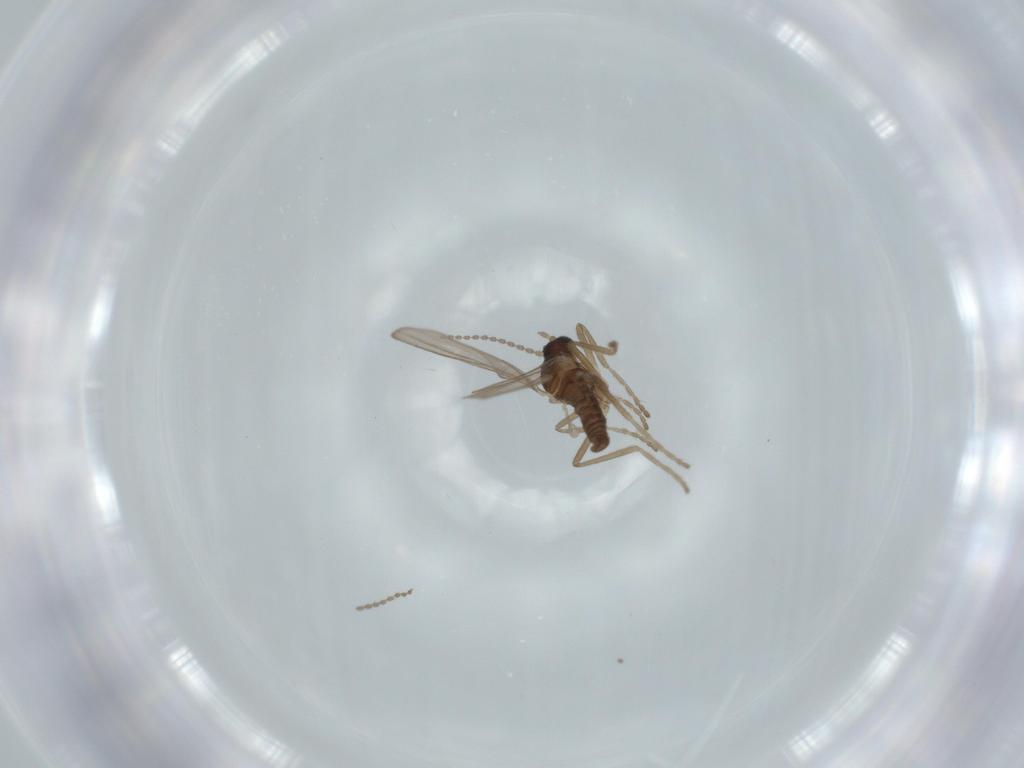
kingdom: Animalia
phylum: Arthropoda
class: Insecta
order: Diptera
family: Cecidomyiidae
